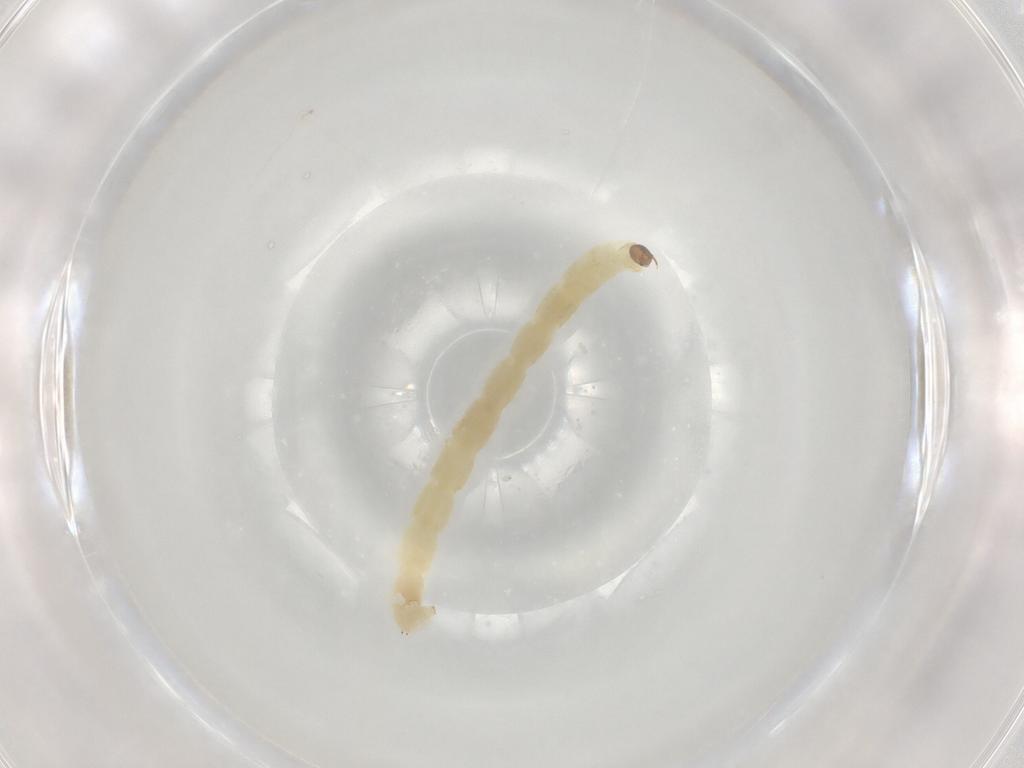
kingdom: Animalia
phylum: Arthropoda
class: Insecta
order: Diptera
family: Chironomidae
